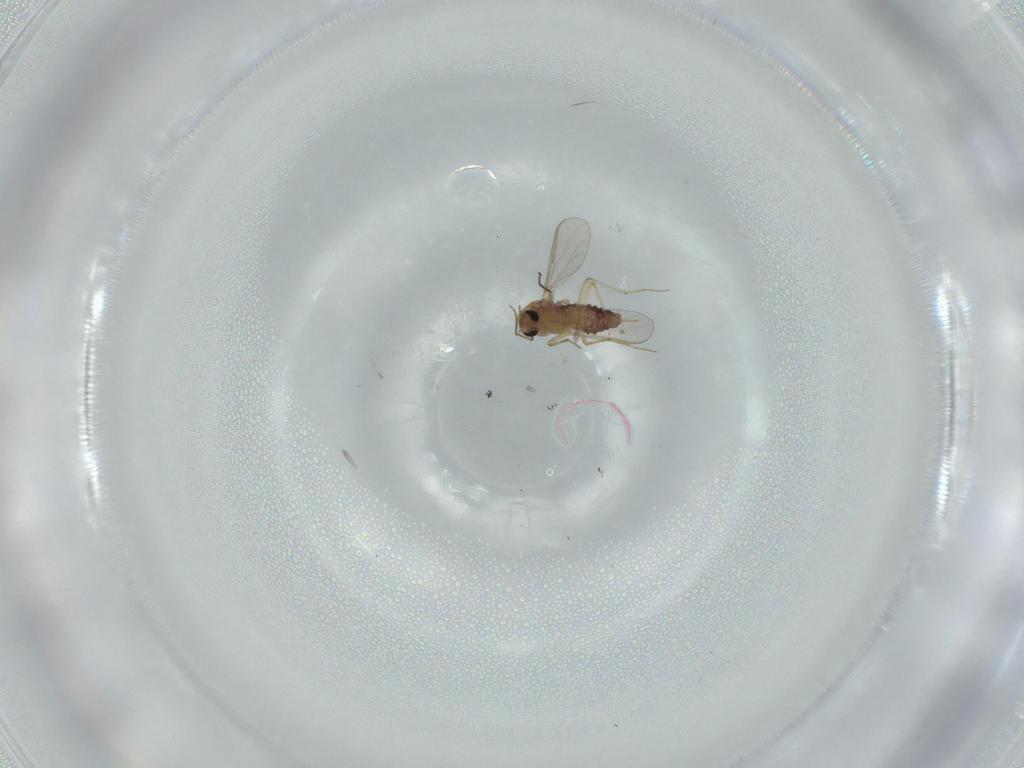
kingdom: Animalia
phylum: Arthropoda
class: Insecta
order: Diptera
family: Chironomidae
